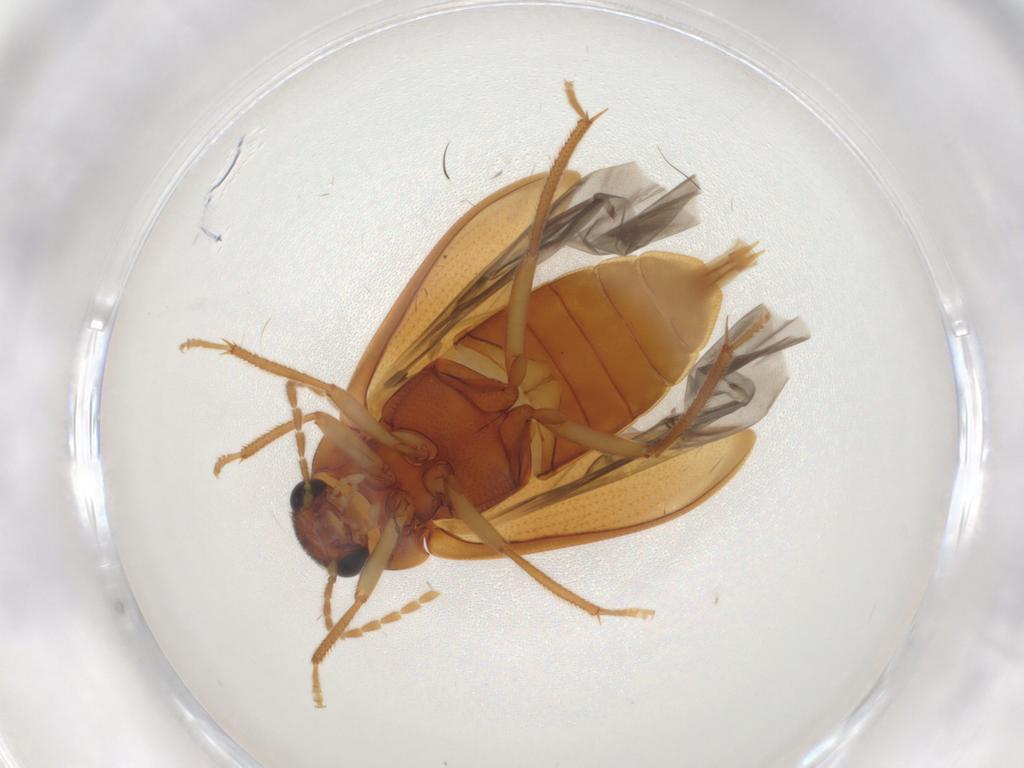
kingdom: Animalia
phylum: Arthropoda
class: Insecta
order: Coleoptera
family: Ptilodactylidae
